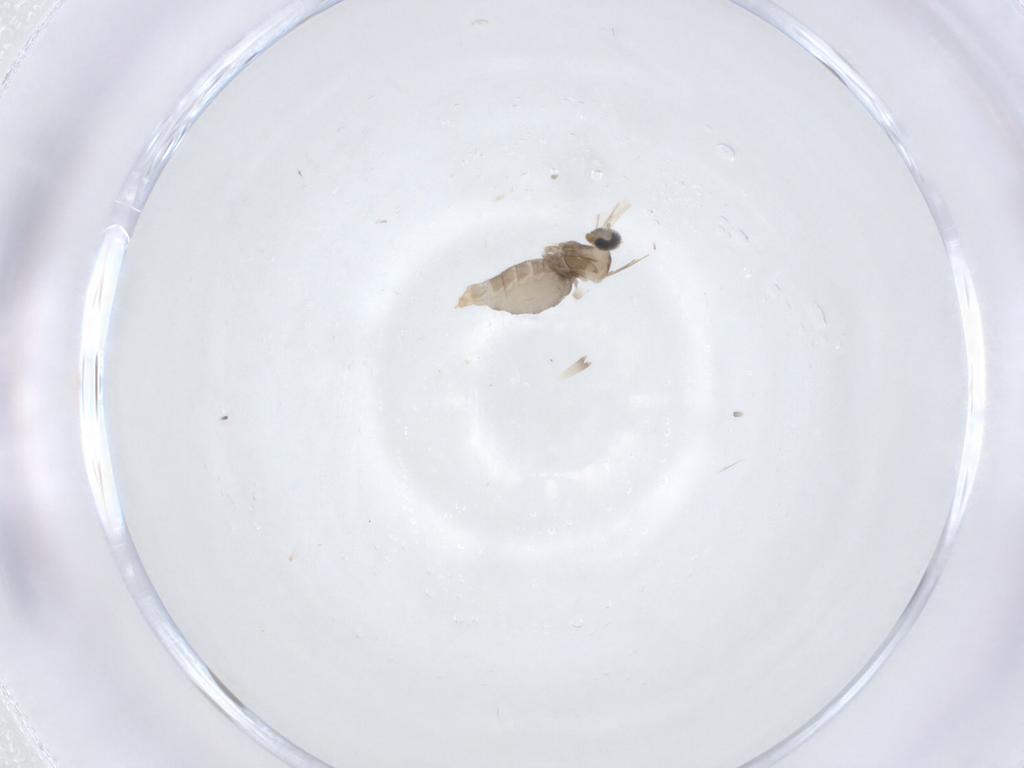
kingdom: Animalia
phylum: Arthropoda
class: Insecta
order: Diptera
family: Cecidomyiidae
